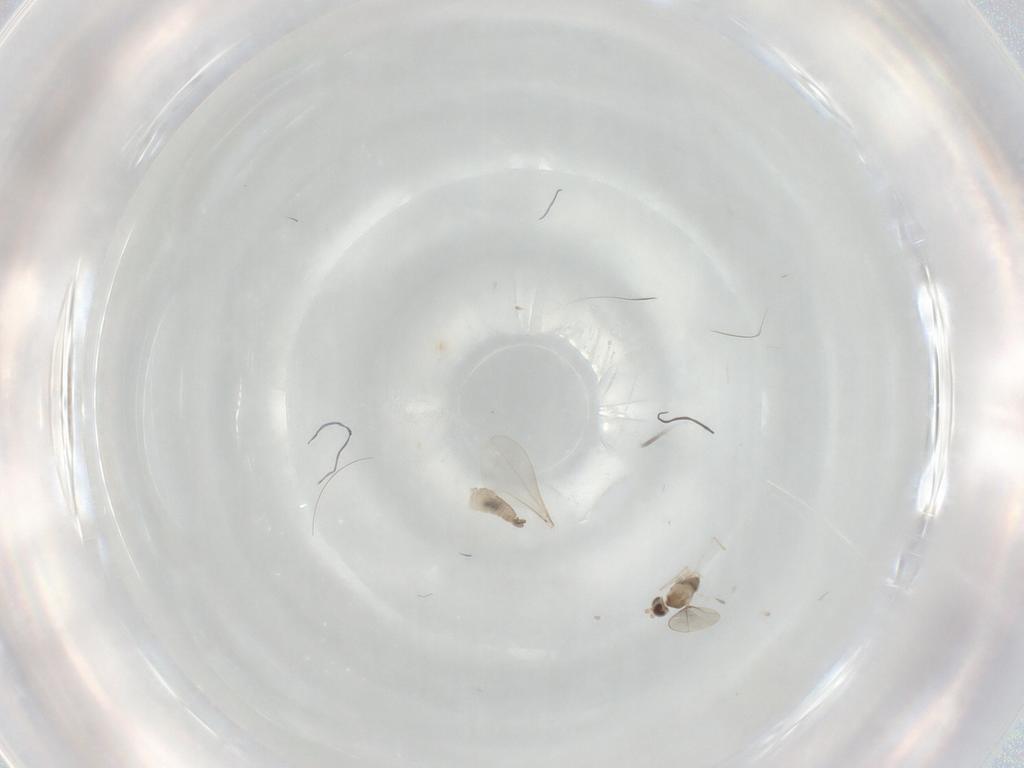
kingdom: Animalia
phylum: Arthropoda
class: Insecta
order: Diptera
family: Cecidomyiidae
